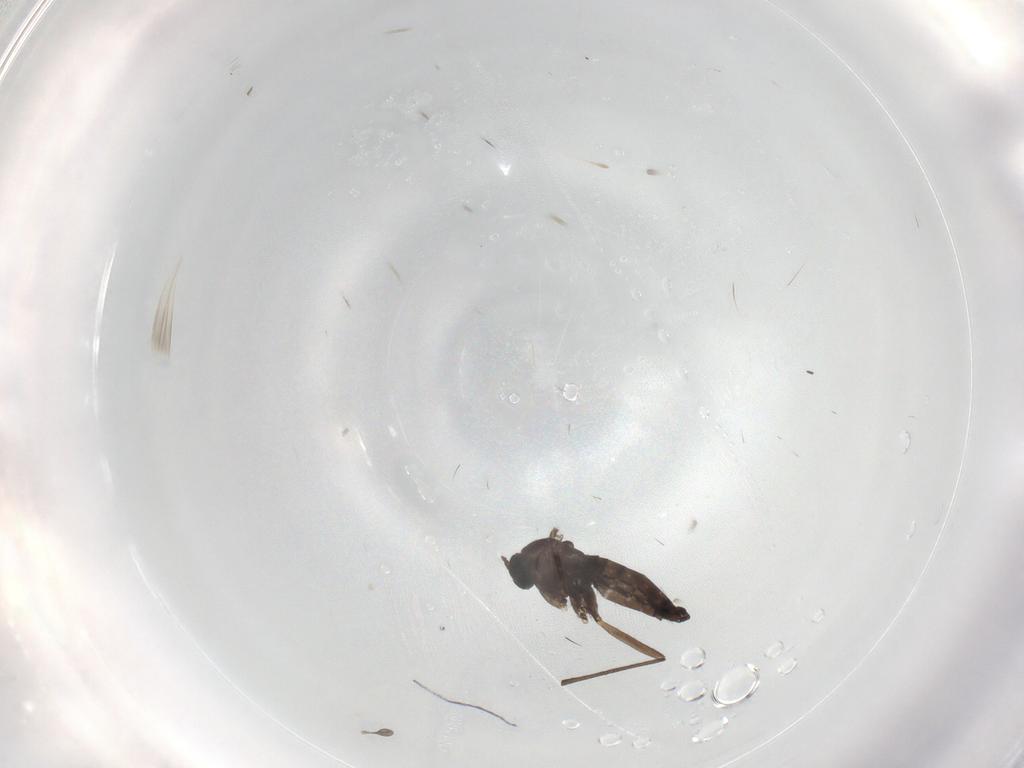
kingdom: Animalia
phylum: Arthropoda
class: Insecta
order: Diptera
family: Sciaridae
